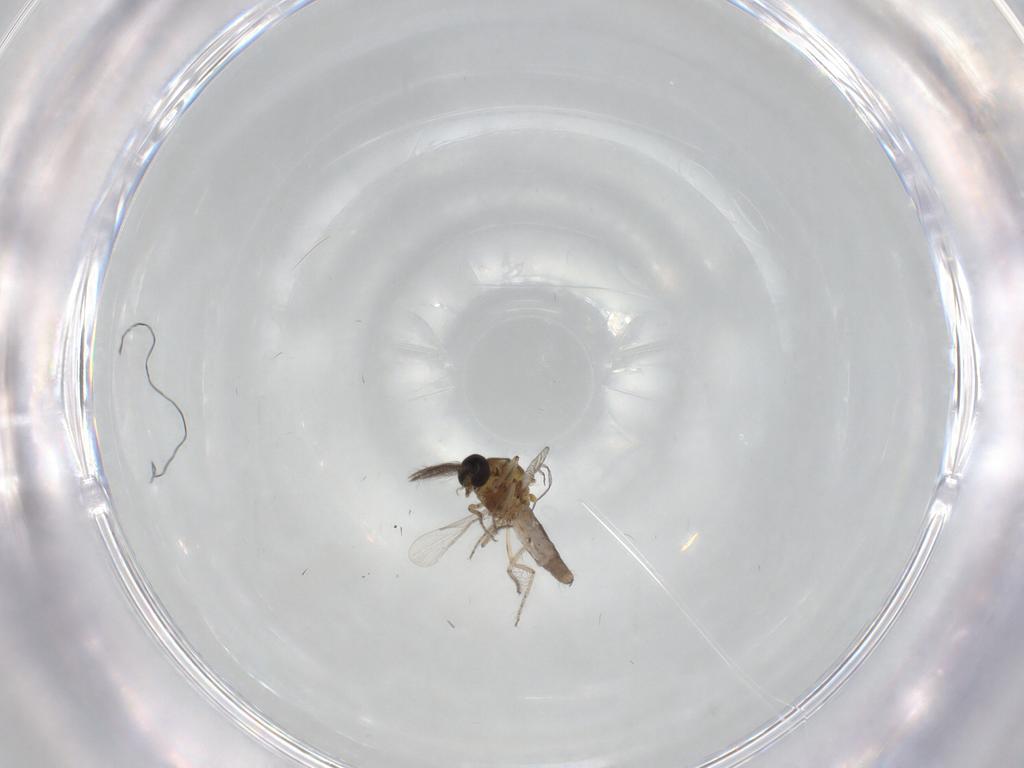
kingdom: Animalia
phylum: Arthropoda
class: Insecta
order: Diptera
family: Ceratopogonidae
